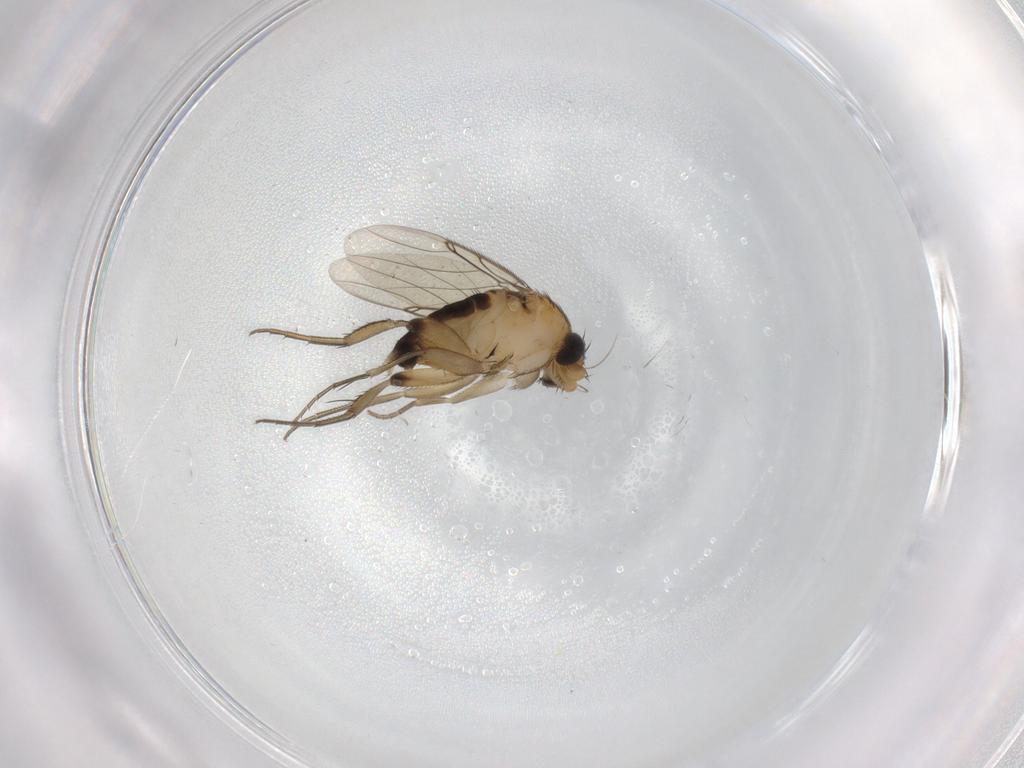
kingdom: Animalia
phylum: Arthropoda
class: Insecta
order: Diptera
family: Phoridae
